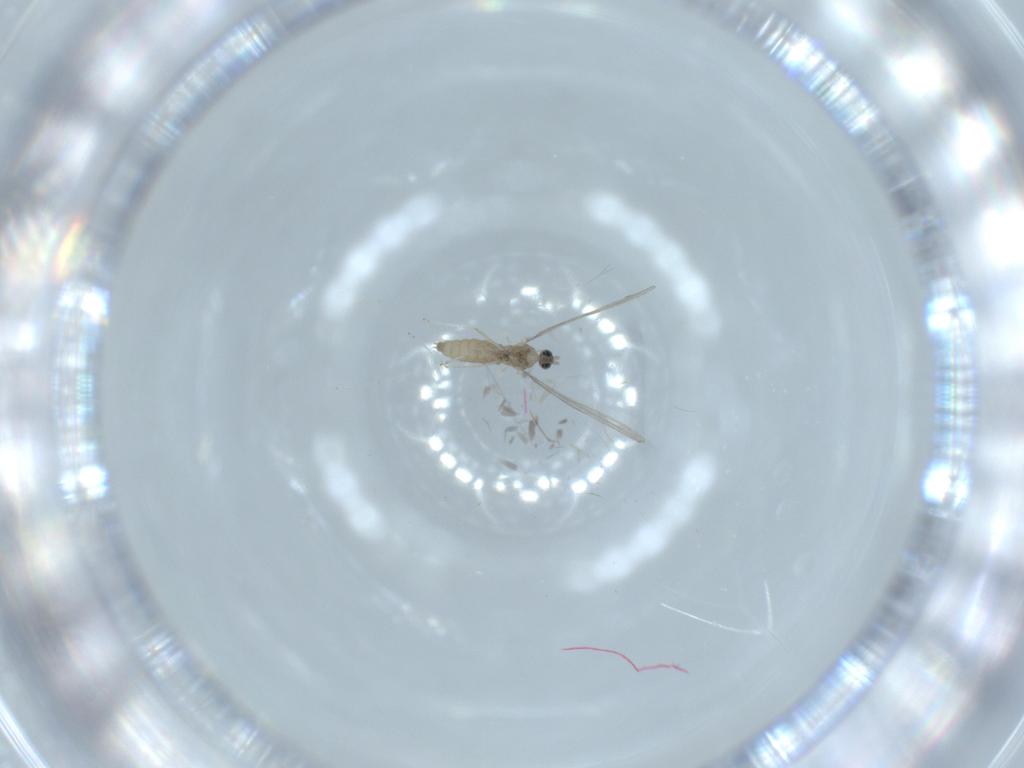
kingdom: Animalia
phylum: Arthropoda
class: Insecta
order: Diptera
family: Cecidomyiidae
